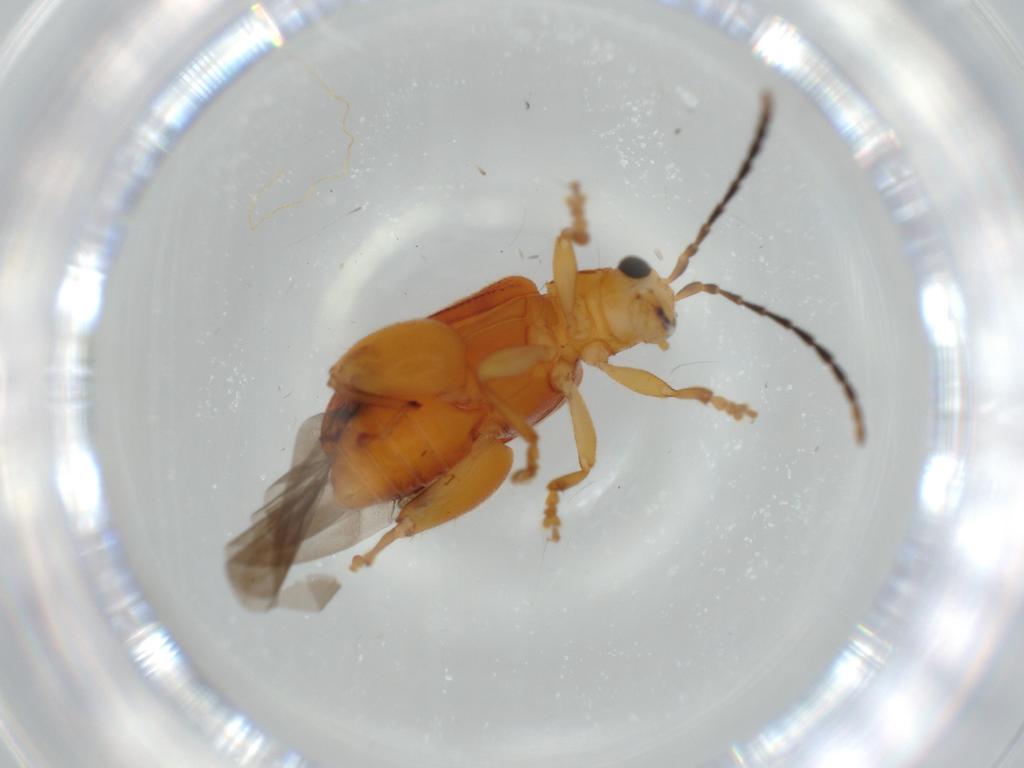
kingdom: Animalia
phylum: Arthropoda
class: Insecta
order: Coleoptera
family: Chrysomelidae
